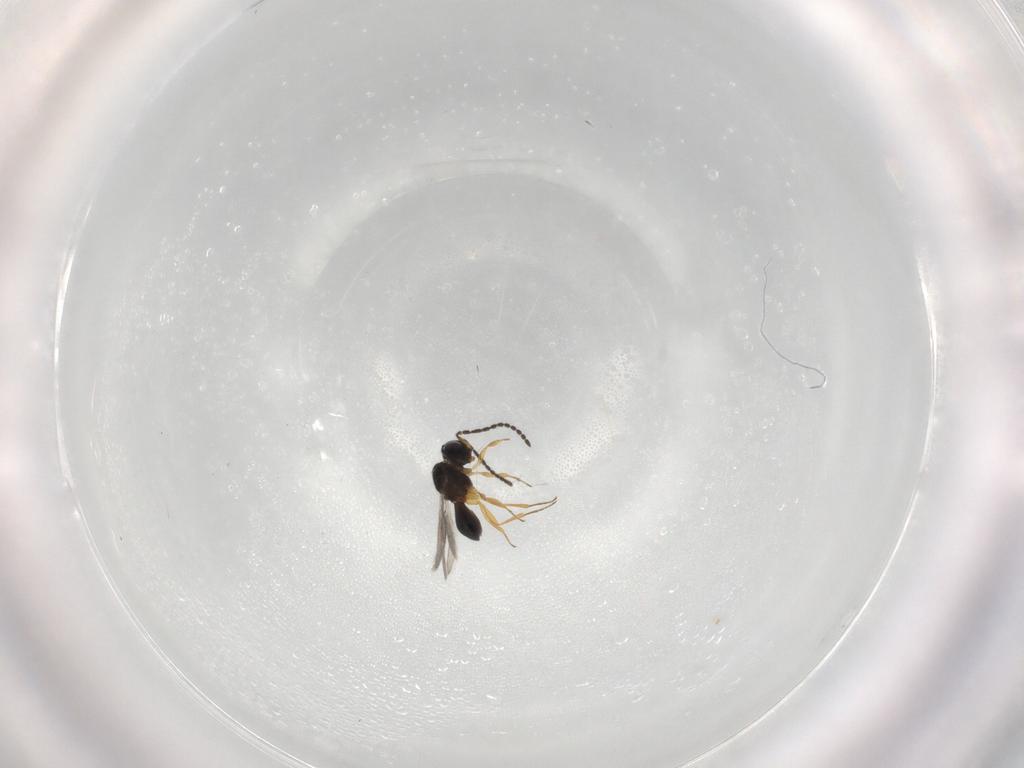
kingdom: Animalia
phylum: Arthropoda
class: Insecta
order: Hymenoptera
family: Scelionidae
